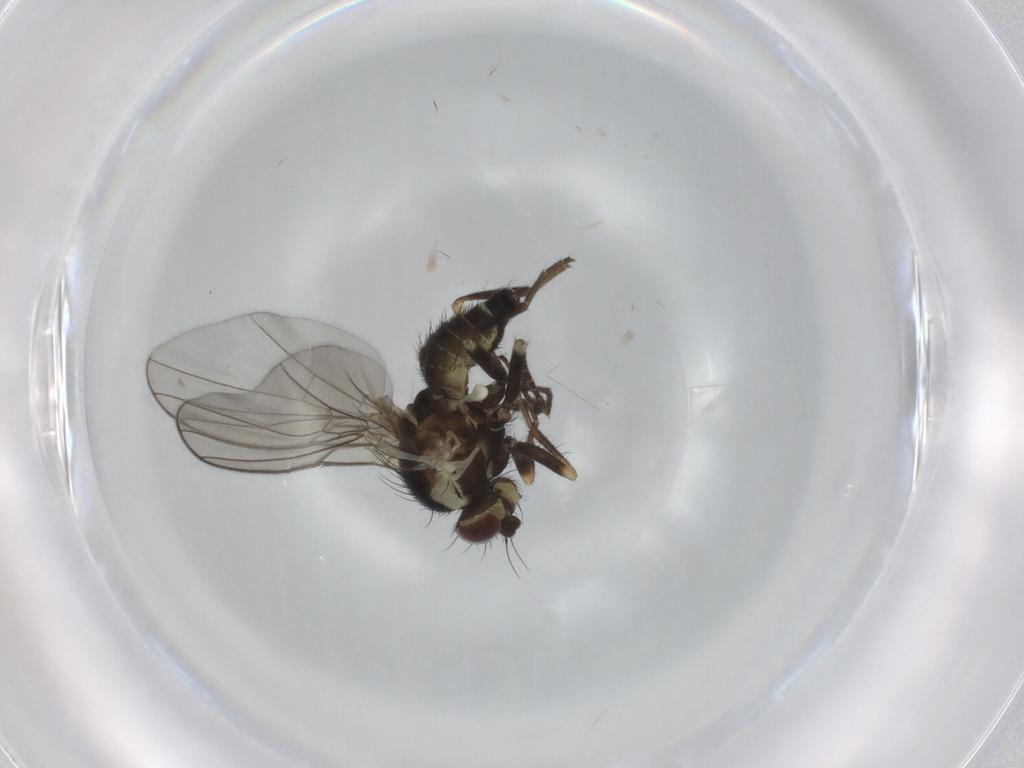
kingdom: Animalia
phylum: Arthropoda
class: Insecta
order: Diptera
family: Agromyzidae
